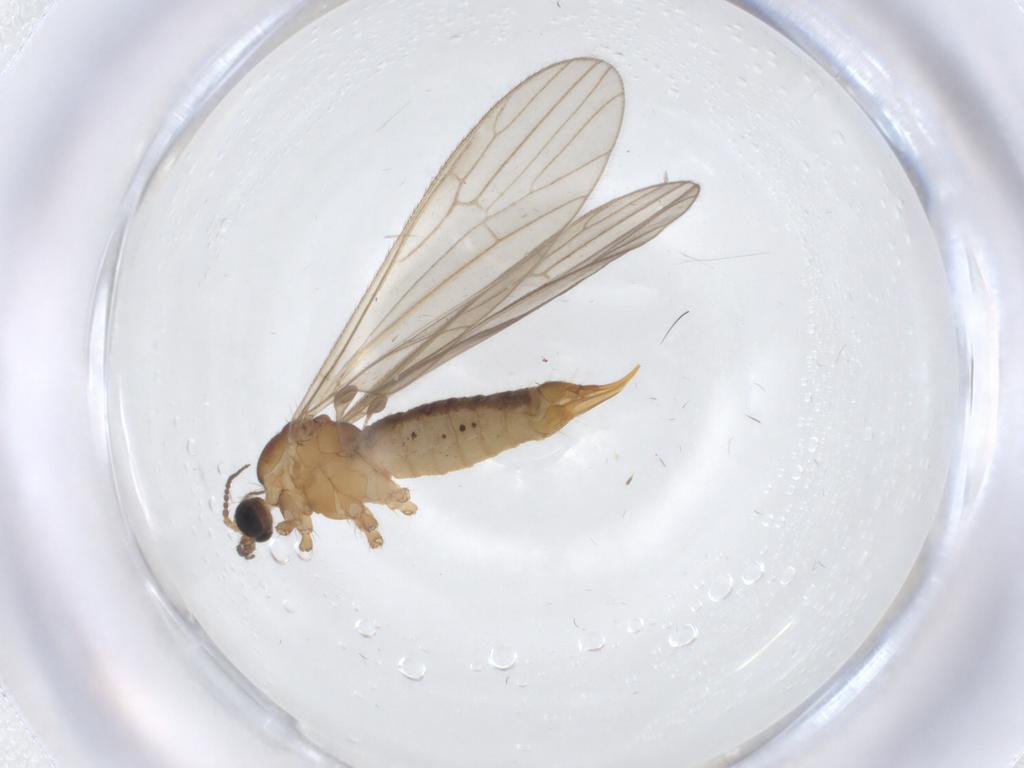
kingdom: Animalia
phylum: Arthropoda
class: Insecta
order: Diptera
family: Limoniidae
